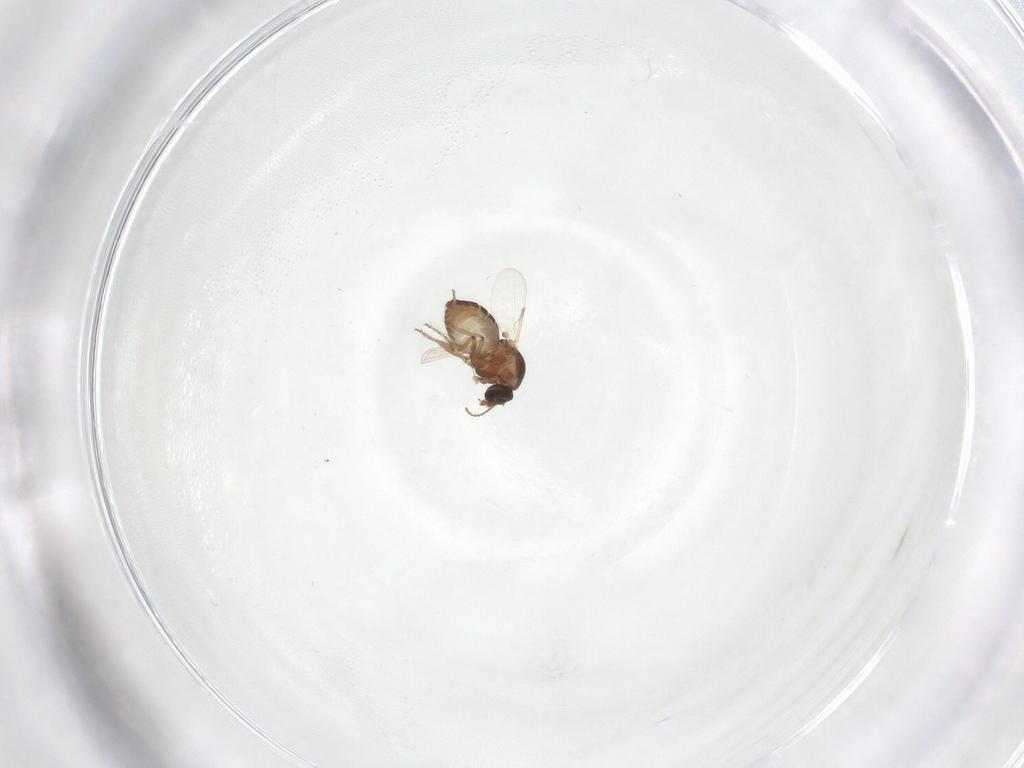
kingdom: Animalia
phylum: Arthropoda
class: Insecta
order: Diptera
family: Ceratopogonidae
